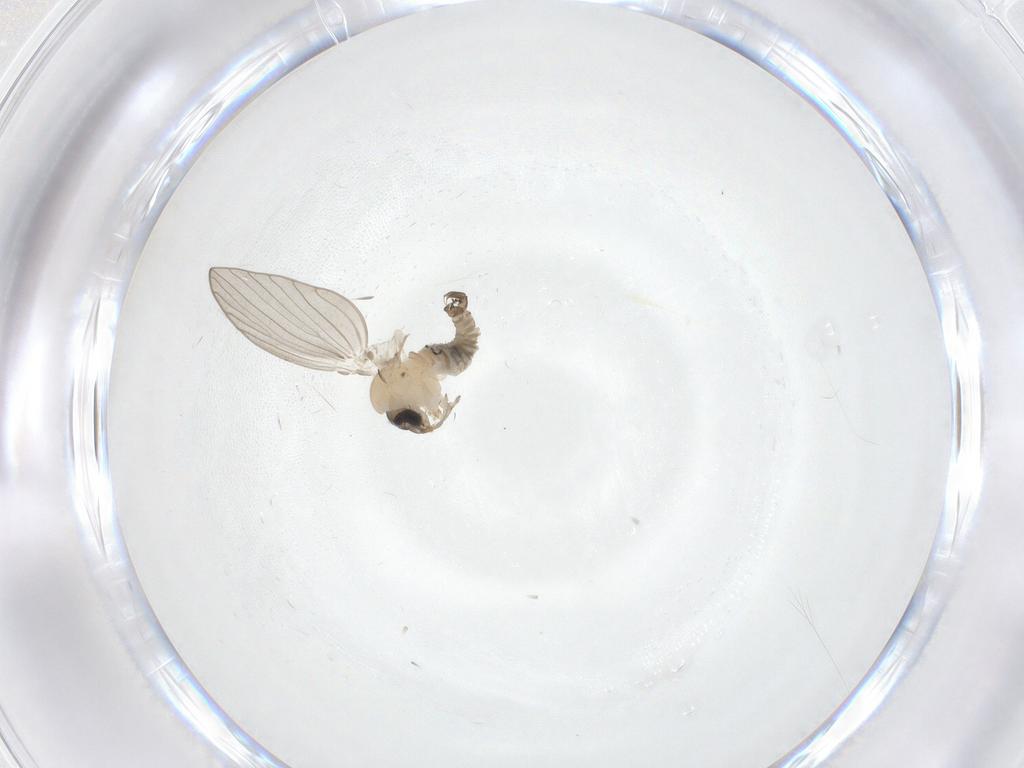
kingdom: Animalia
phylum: Arthropoda
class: Insecta
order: Diptera
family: Psychodidae
